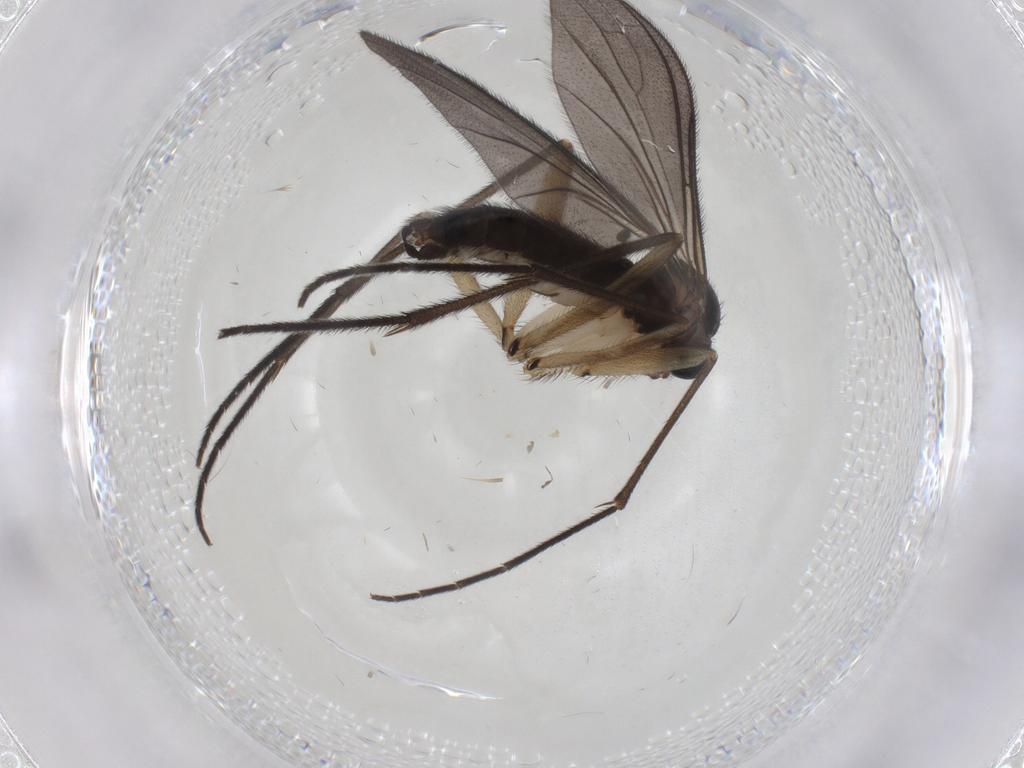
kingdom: Animalia
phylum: Arthropoda
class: Insecta
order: Diptera
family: Sciaridae
